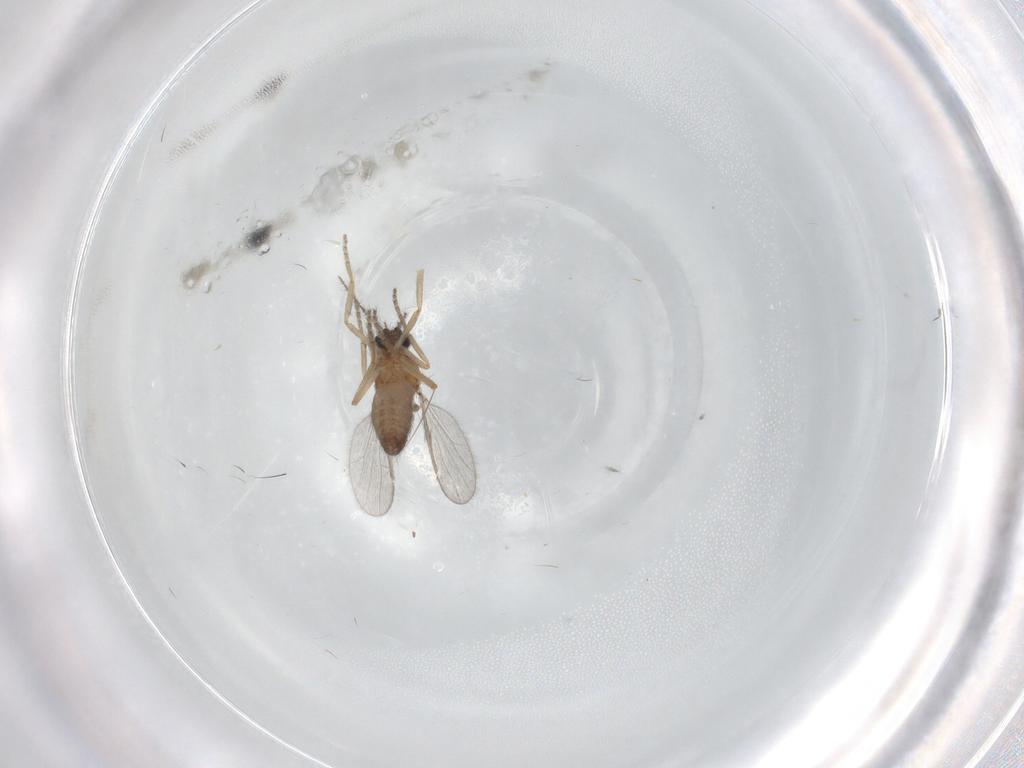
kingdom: Animalia
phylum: Arthropoda
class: Insecta
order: Diptera
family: Ceratopogonidae
